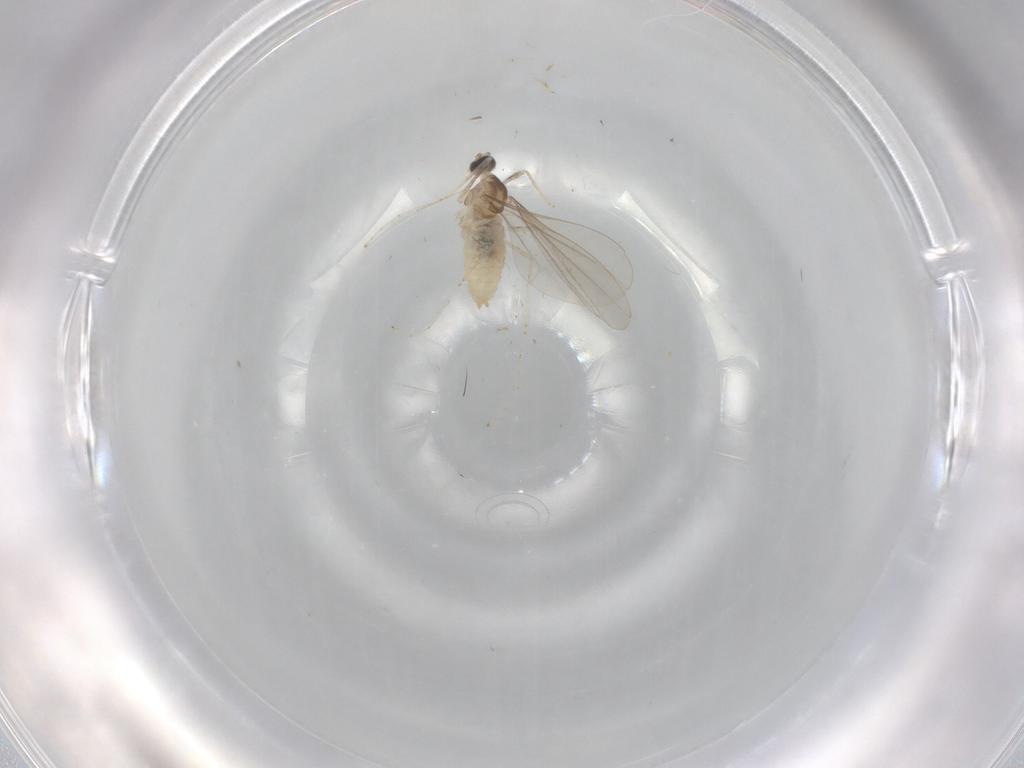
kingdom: Animalia
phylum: Arthropoda
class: Insecta
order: Diptera
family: Cecidomyiidae
